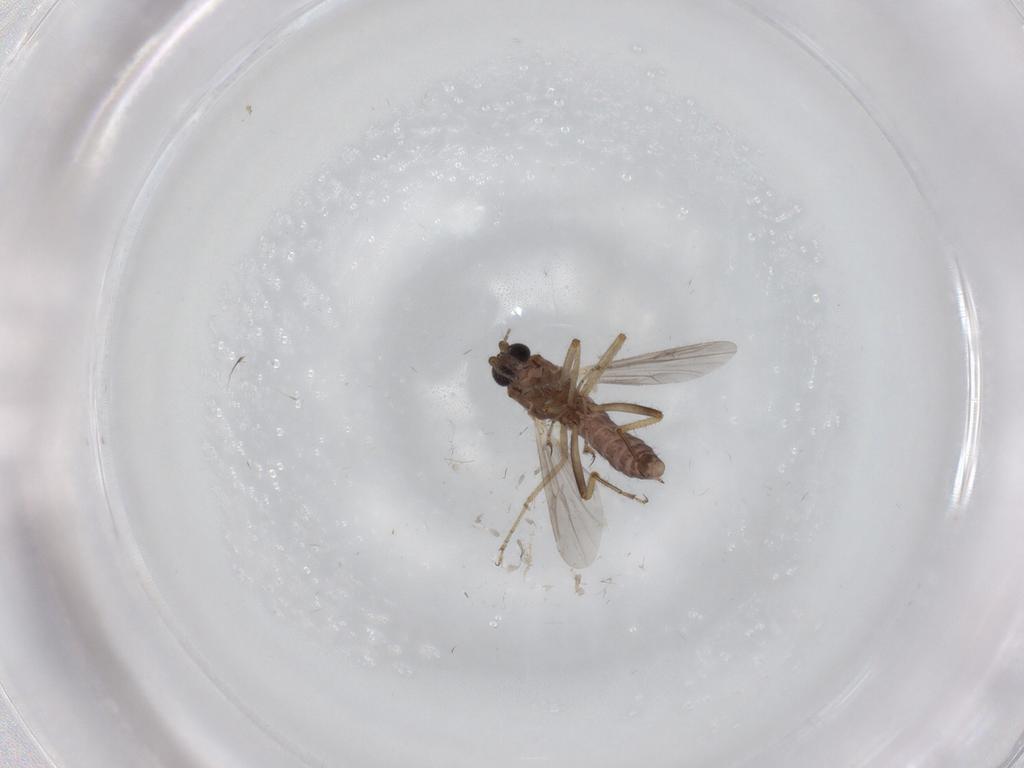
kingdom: Animalia
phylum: Arthropoda
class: Insecta
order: Diptera
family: Ceratopogonidae
